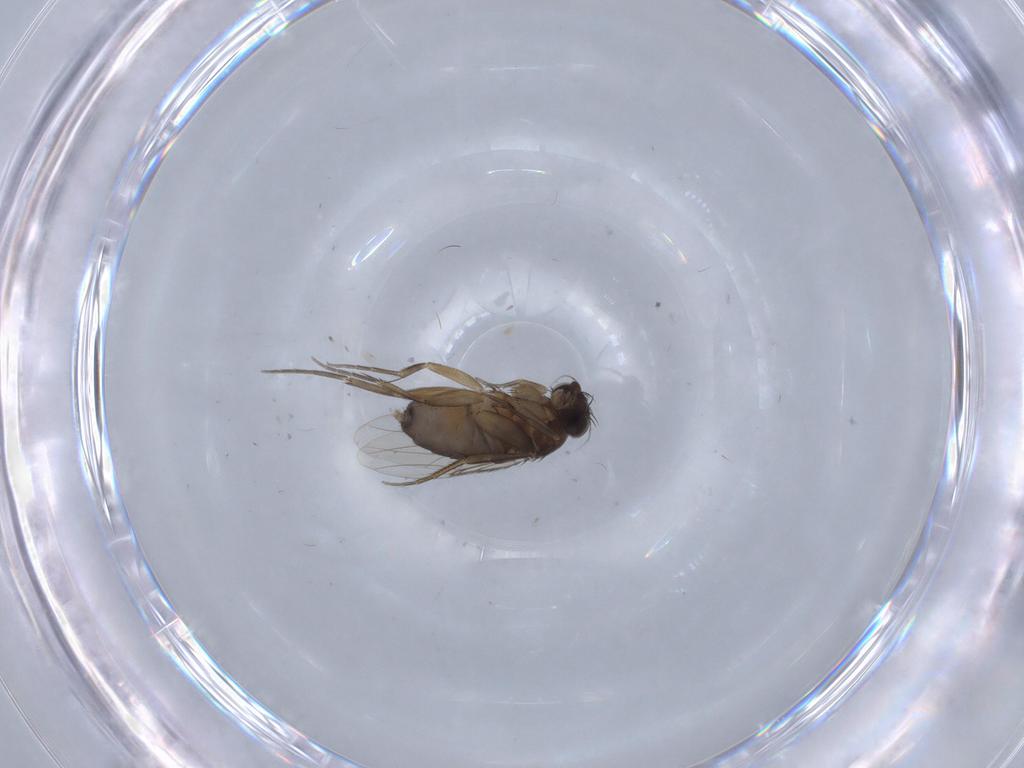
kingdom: Animalia
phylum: Arthropoda
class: Insecta
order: Diptera
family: Phoridae
